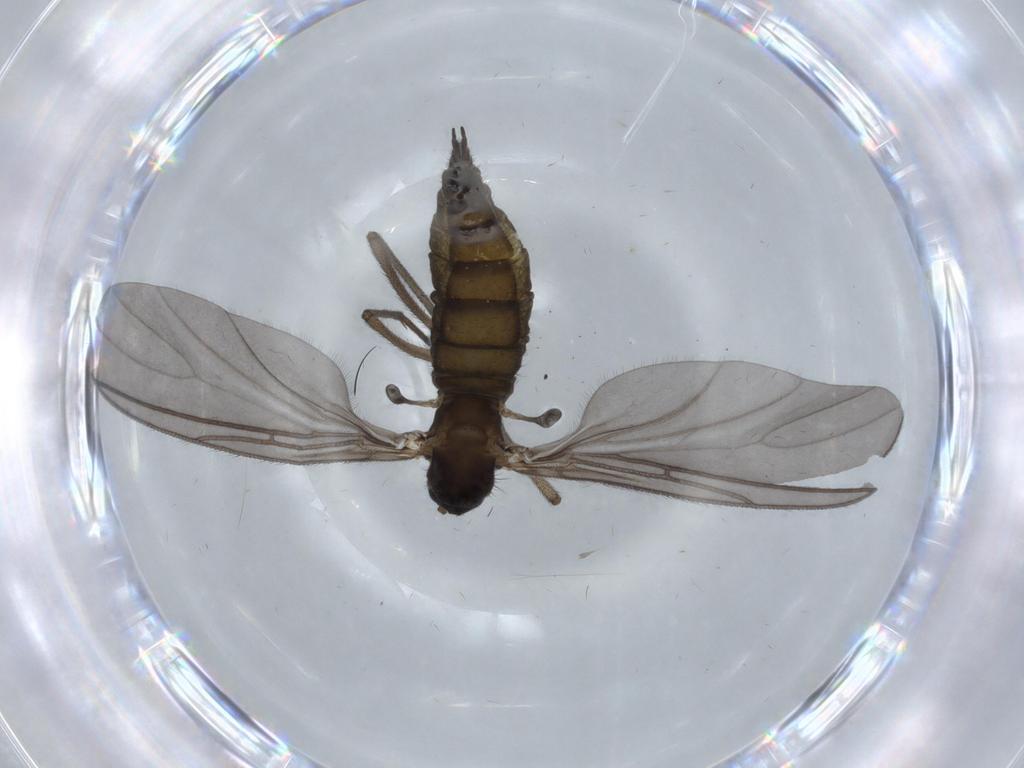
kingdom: Animalia
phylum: Arthropoda
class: Insecta
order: Diptera
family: Sciaridae
